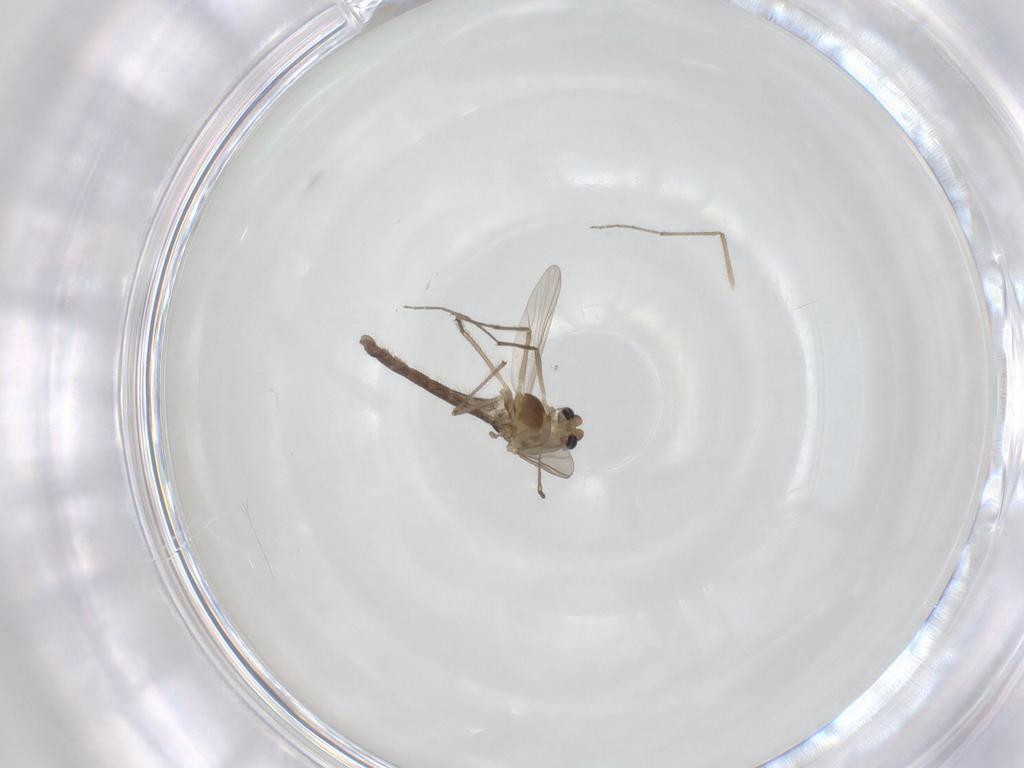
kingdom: Animalia
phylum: Arthropoda
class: Insecta
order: Diptera
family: Chironomidae
